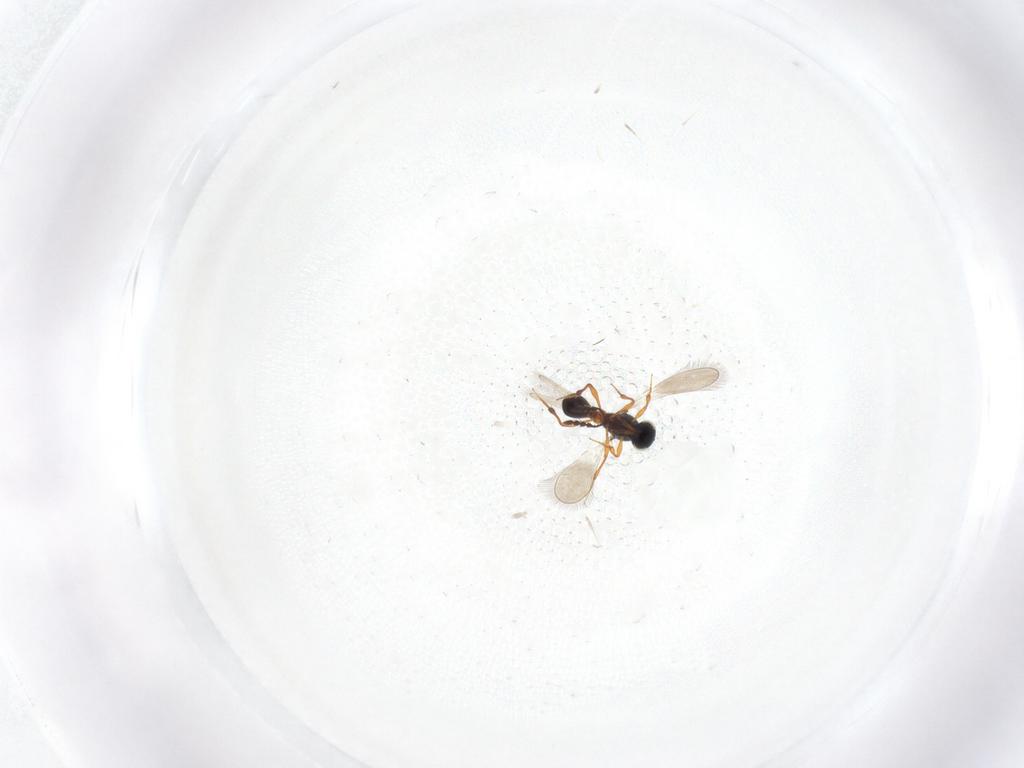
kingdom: Animalia
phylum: Arthropoda
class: Insecta
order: Hymenoptera
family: Platygastridae
